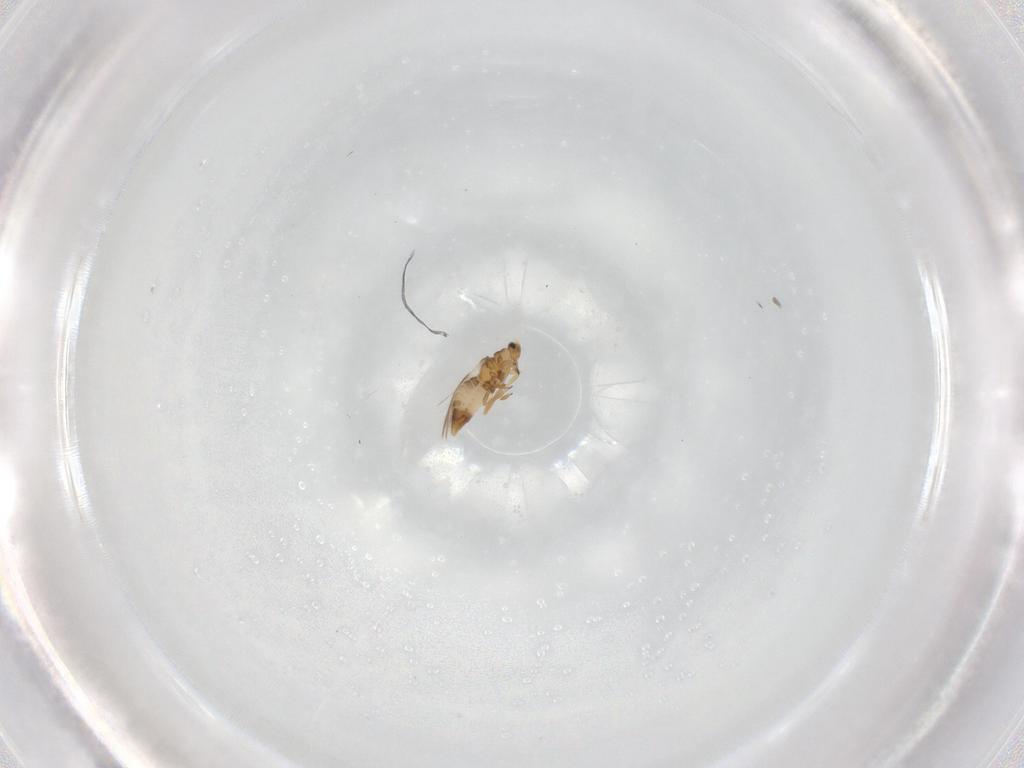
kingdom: Animalia
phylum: Arthropoda
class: Insecta
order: Thysanoptera
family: Thripidae
